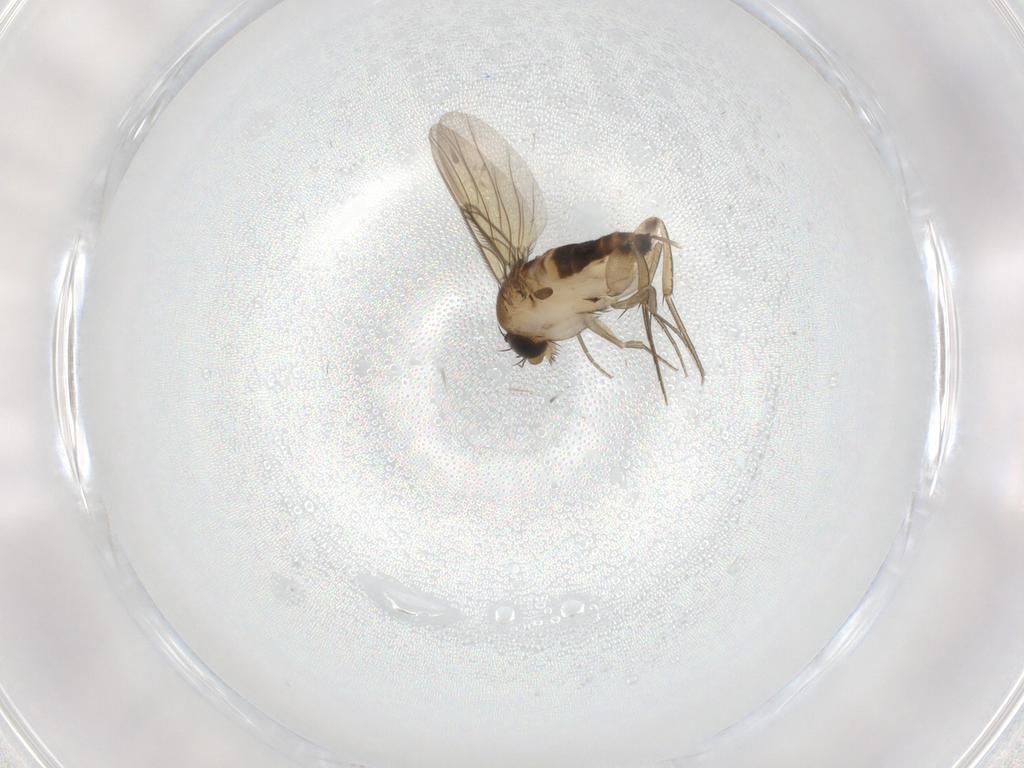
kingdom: Animalia
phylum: Arthropoda
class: Insecta
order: Diptera
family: Phoridae
